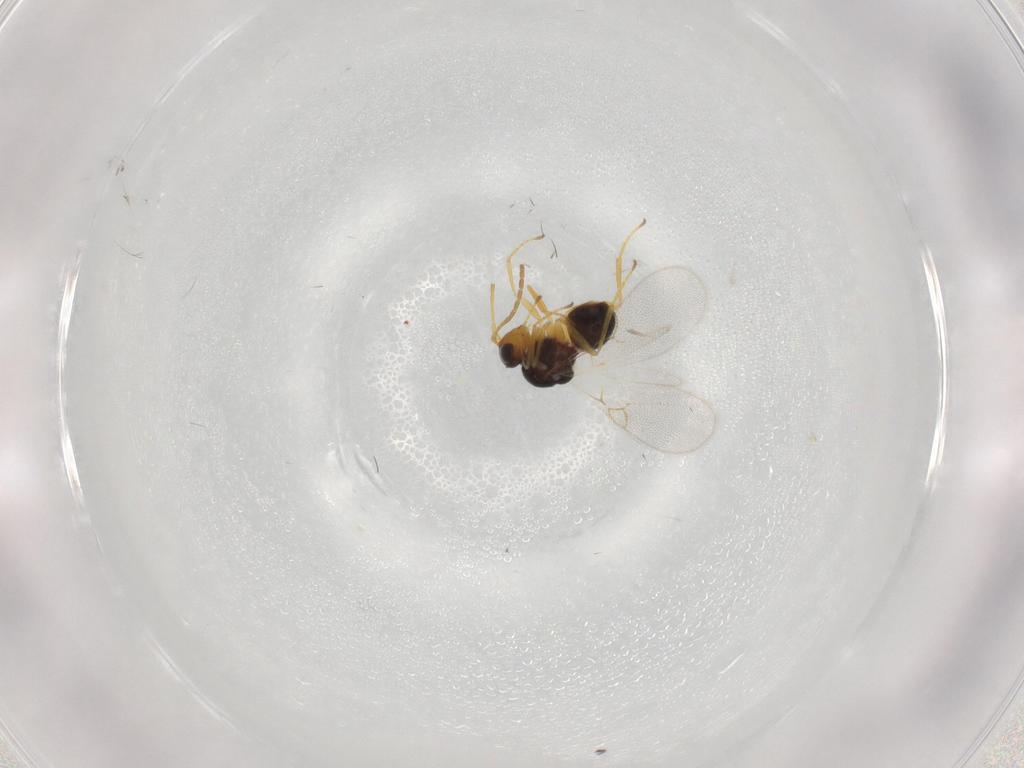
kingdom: Animalia
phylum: Arthropoda
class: Insecta
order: Hymenoptera
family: Figitidae
